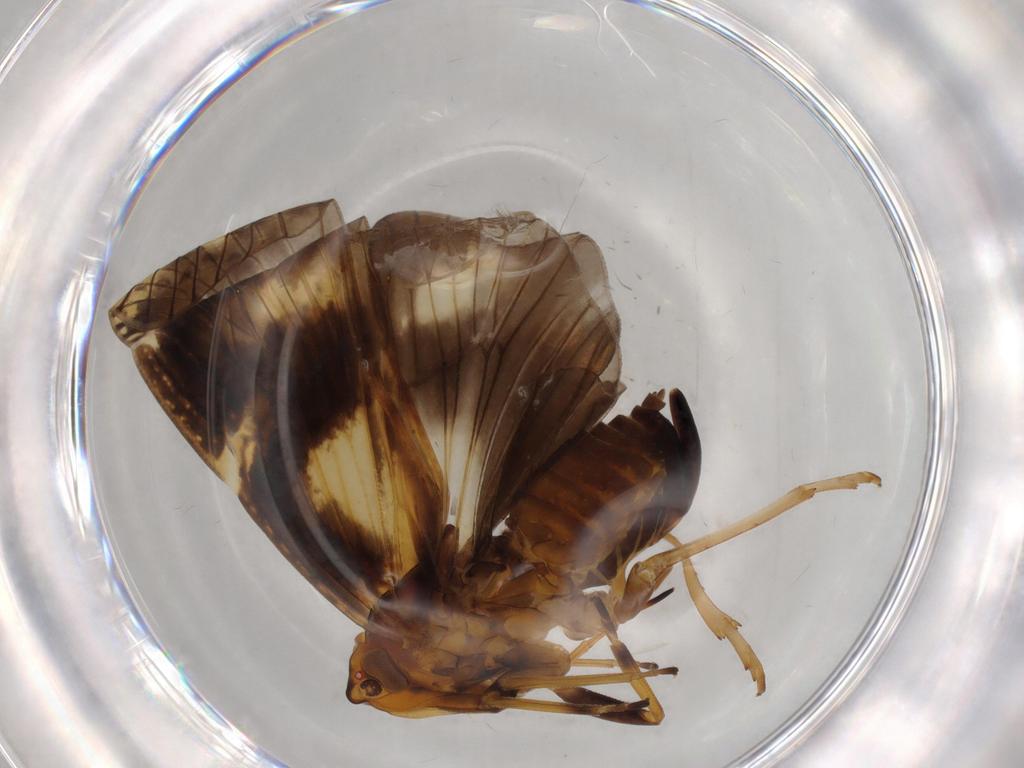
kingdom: Animalia
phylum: Arthropoda
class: Insecta
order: Hemiptera
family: Cixiidae
